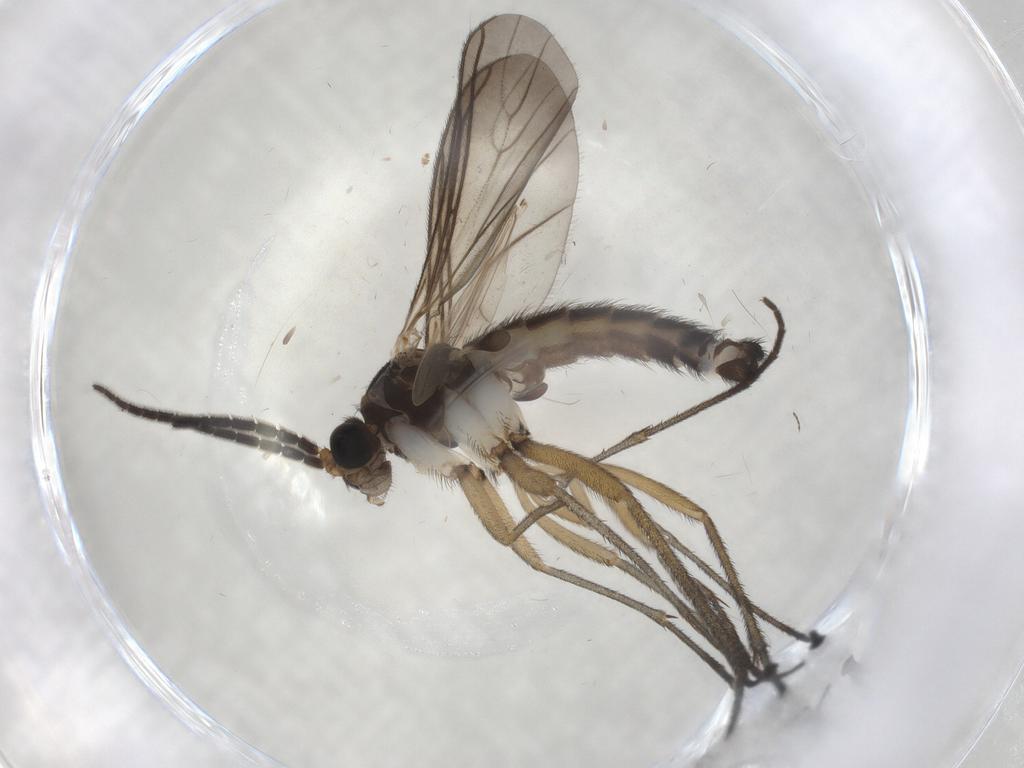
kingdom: Animalia
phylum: Arthropoda
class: Insecta
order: Diptera
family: Sciaridae
